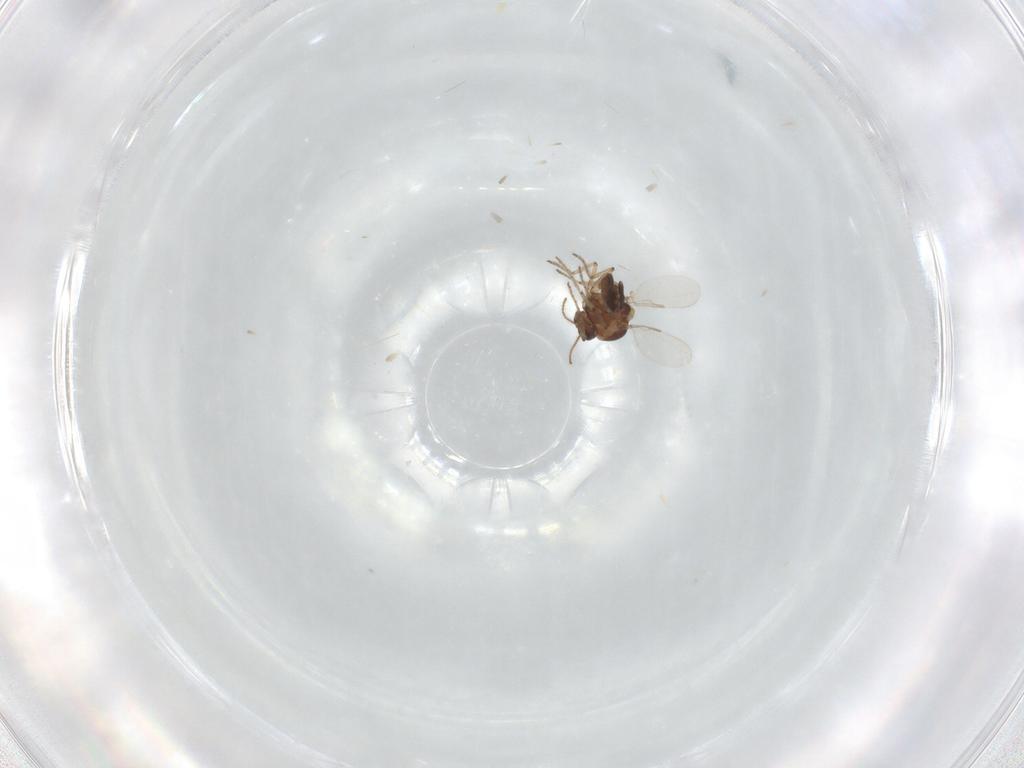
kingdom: Animalia
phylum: Arthropoda
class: Insecta
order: Diptera
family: Ceratopogonidae
